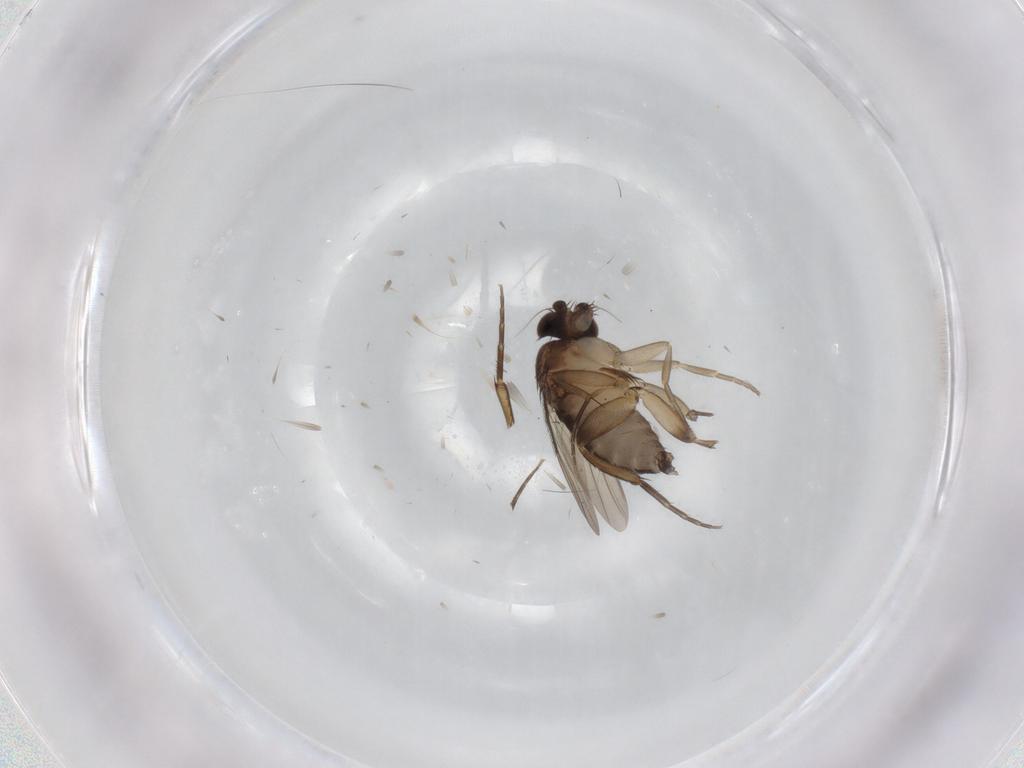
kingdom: Animalia
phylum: Arthropoda
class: Insecta
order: Diptera
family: Phoridae
